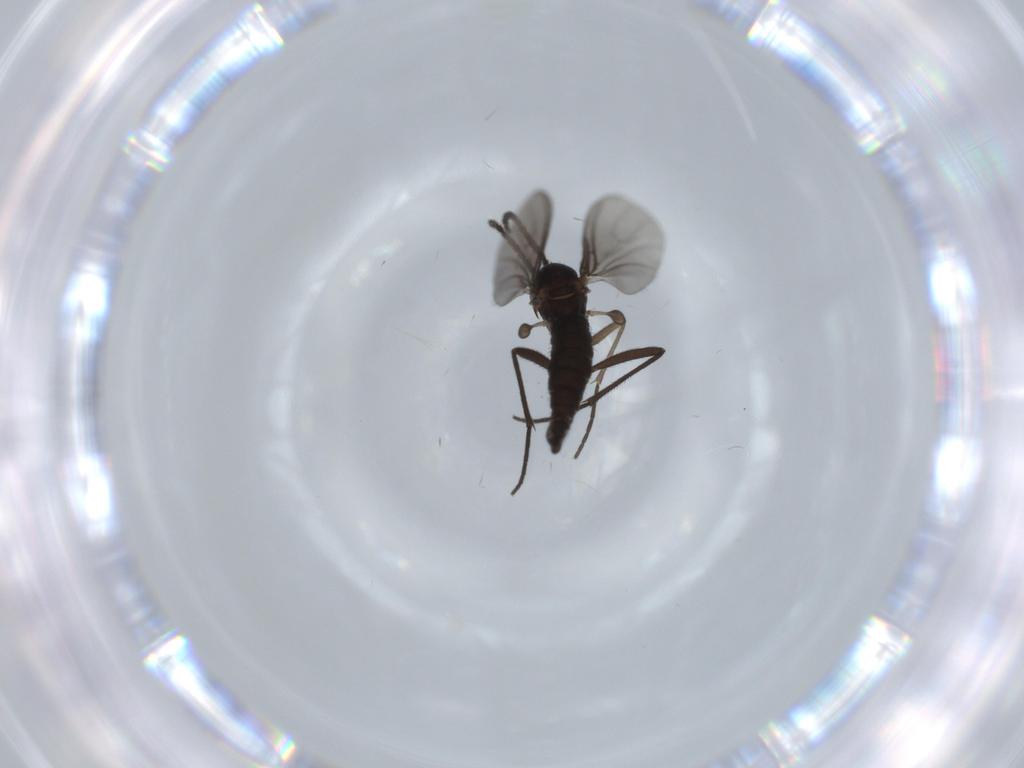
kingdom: Animalia
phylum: Arthropoda
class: Insecta
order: Diptera
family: Sciaridae
